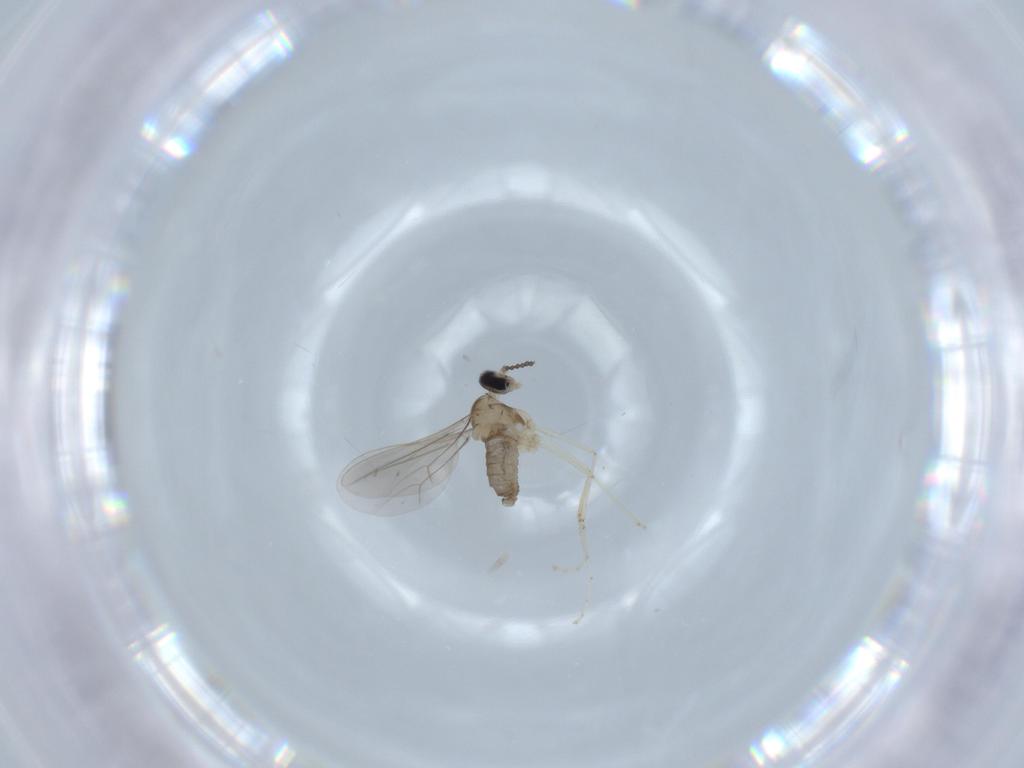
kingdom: Animalia
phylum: Arthropoda
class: Insecta
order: Diptera
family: Cecidomyiidae
